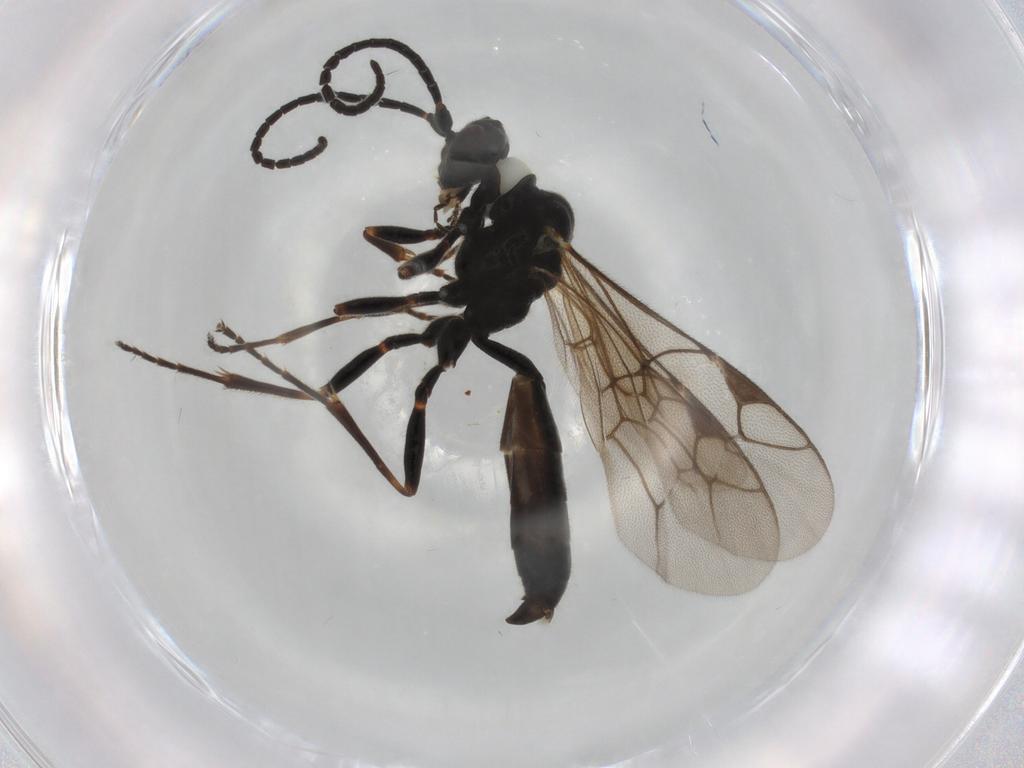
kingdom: Animalia
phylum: Arthropoda
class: Insecta
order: Hymenoptera
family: Ichneumonidae
